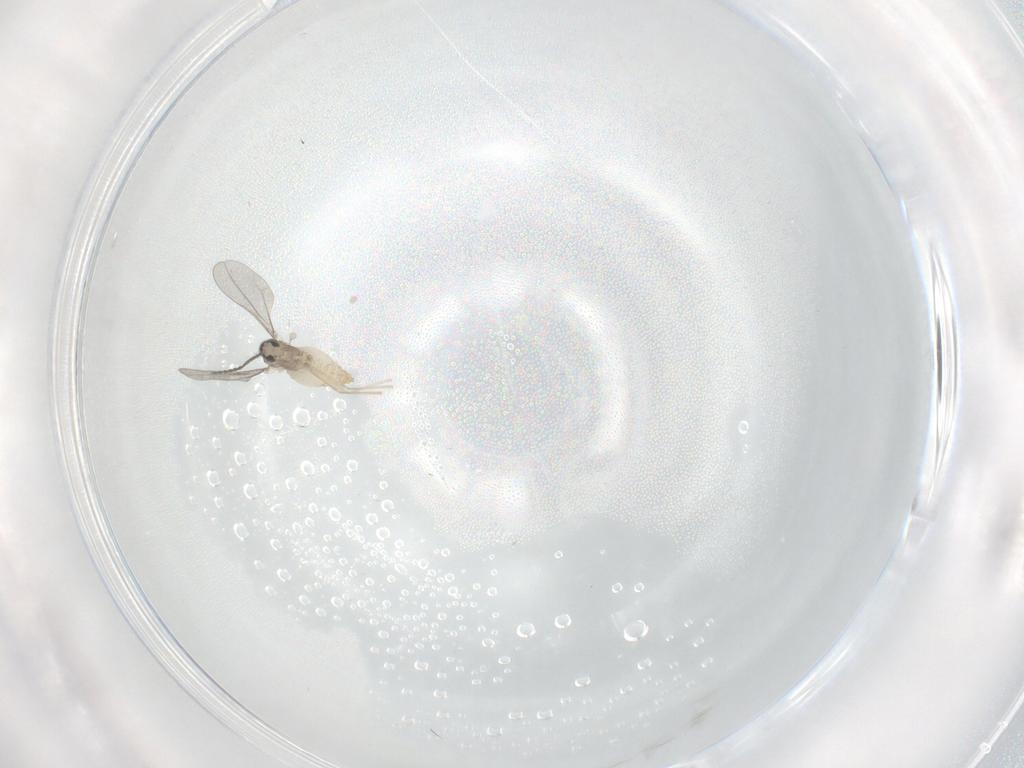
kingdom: Animalia
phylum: Arthropoda
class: Insecta
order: Diptera
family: Cecidomyiidae
